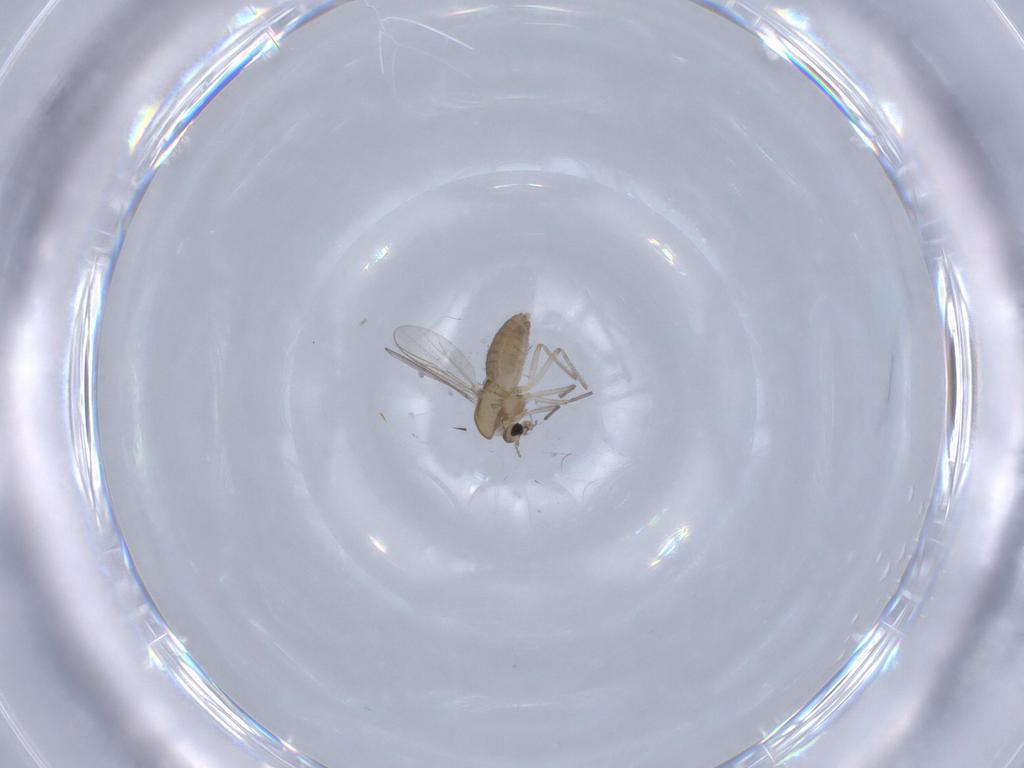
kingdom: Animalia
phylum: Arthropoda
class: Insecta
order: Diptera
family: Chironomidae
